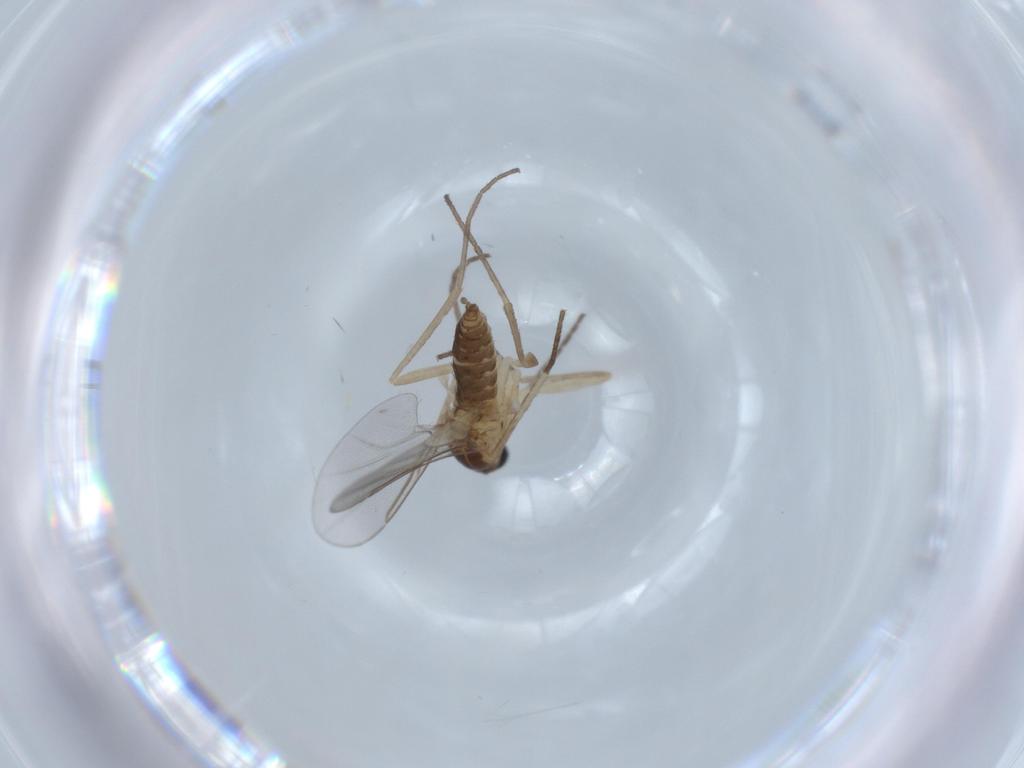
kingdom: Animalia
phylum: Arthropoda
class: Insecta
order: Diptera
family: Cecidomyiidae
